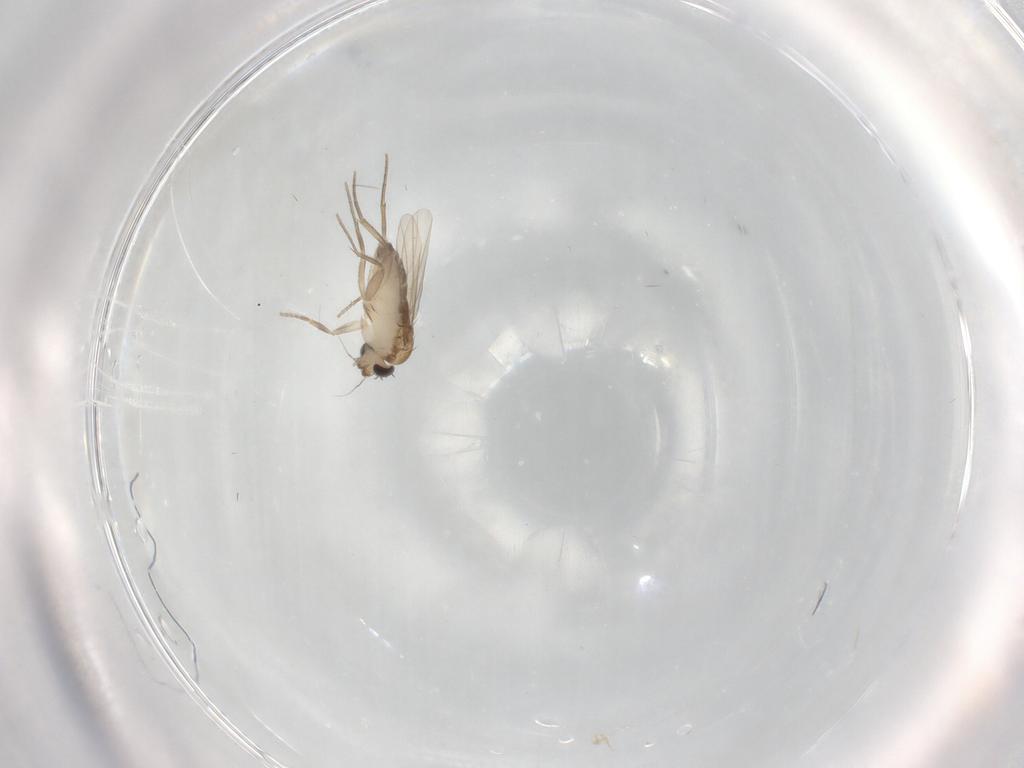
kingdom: Animalia
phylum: Arthropoda
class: Insecta
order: Diptera
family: Phoridae
